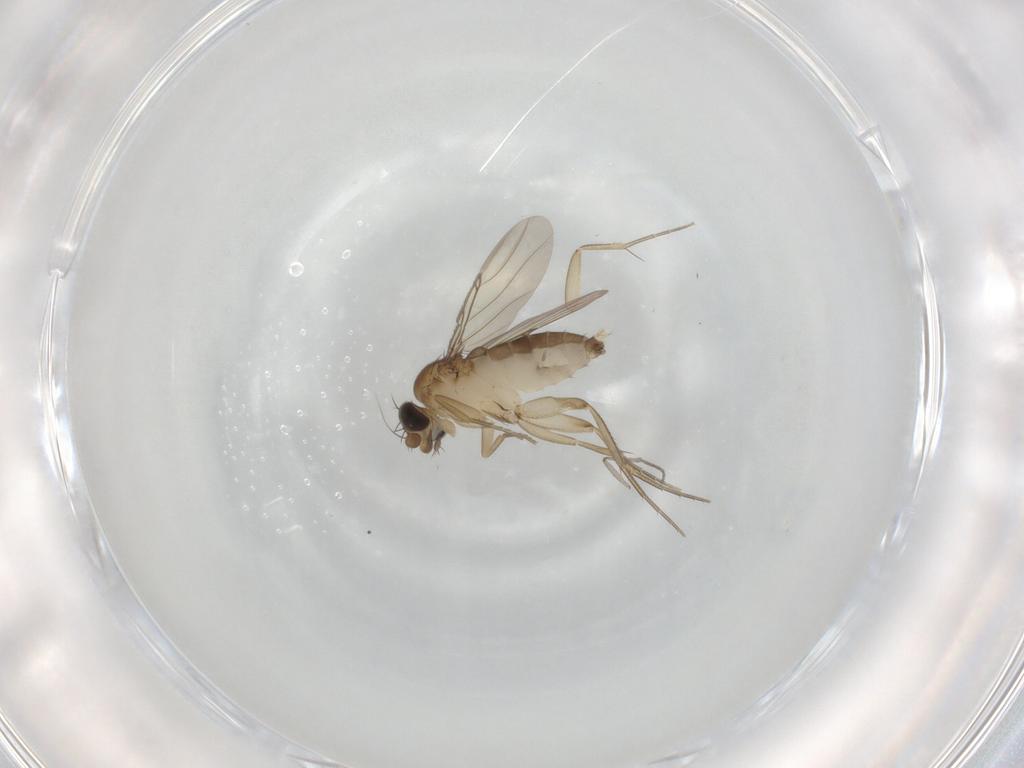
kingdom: Animalia
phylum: Arthropoda
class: Insecta
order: Diptera
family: Phoridae
